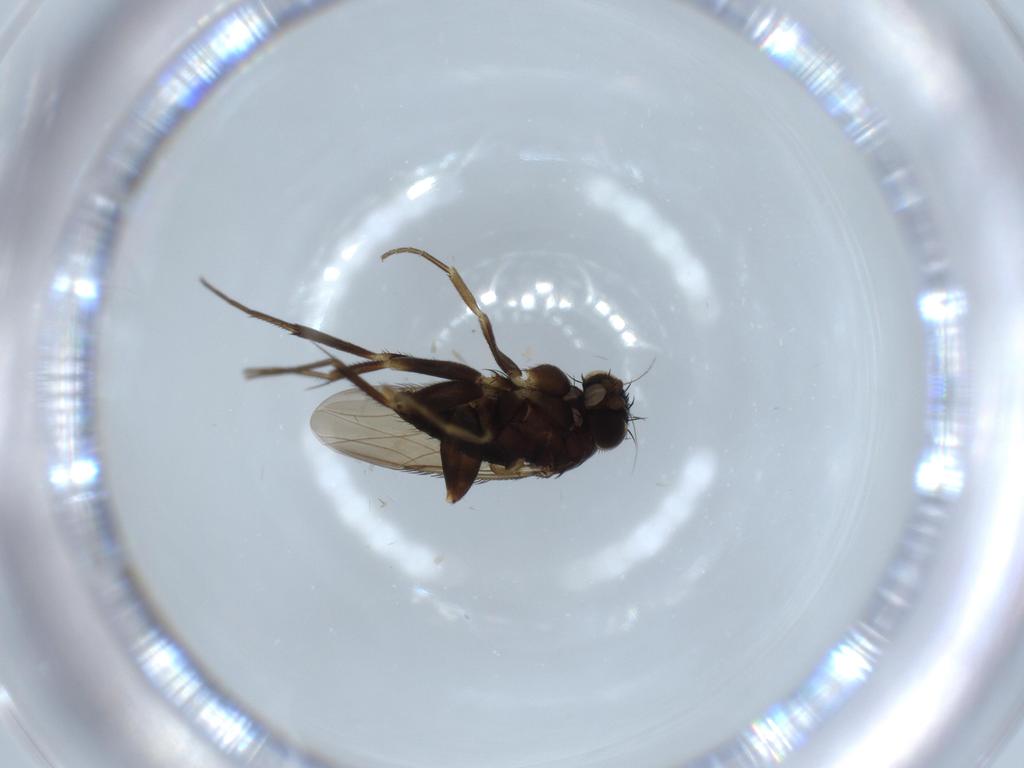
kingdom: Animalia
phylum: Arthropoda
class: Insecta
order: Diptera
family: Phoridae
